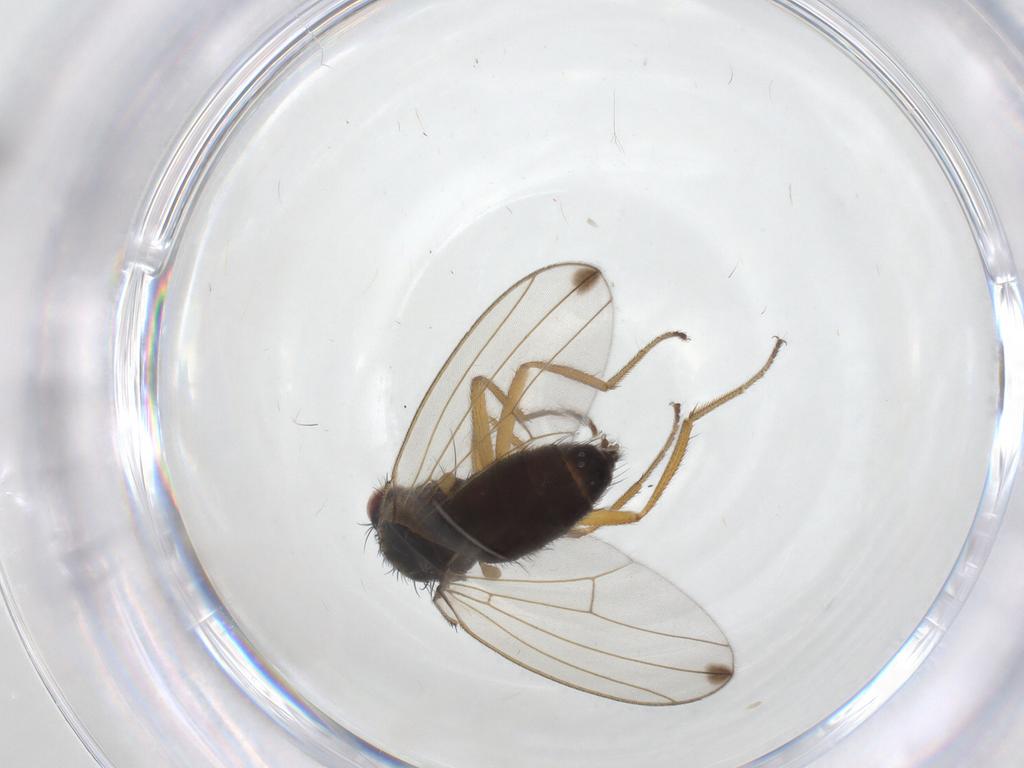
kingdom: Animalia
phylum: Arthropoda
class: Insecta
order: Diptera
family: Drosophilidae
